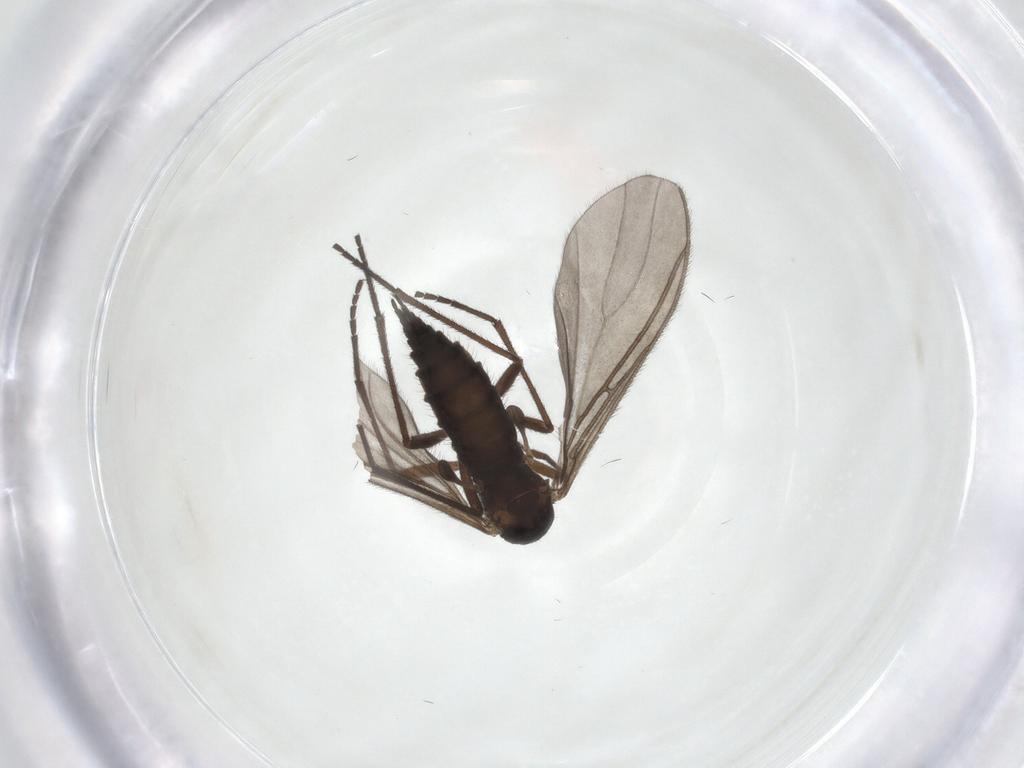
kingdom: Animalia
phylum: Arthropoda
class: Insecta
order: Diptera
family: Sciaridae
